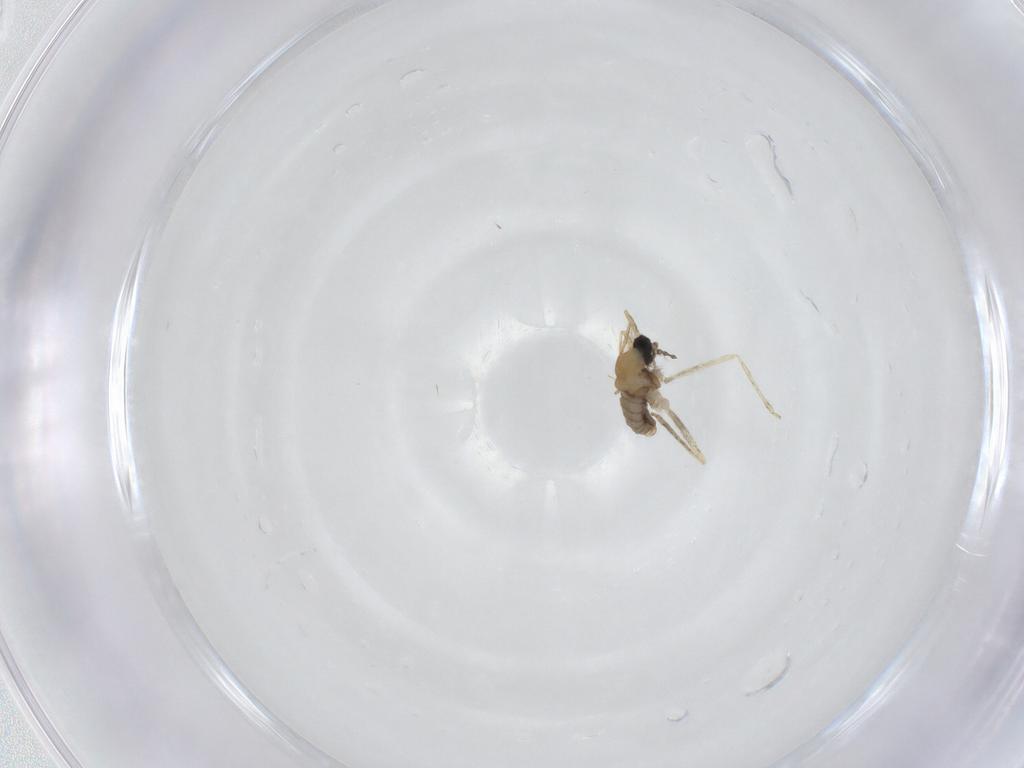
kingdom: Animalia
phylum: Arthropoda
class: Insecta
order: Diptera
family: Cecidomyiidae
